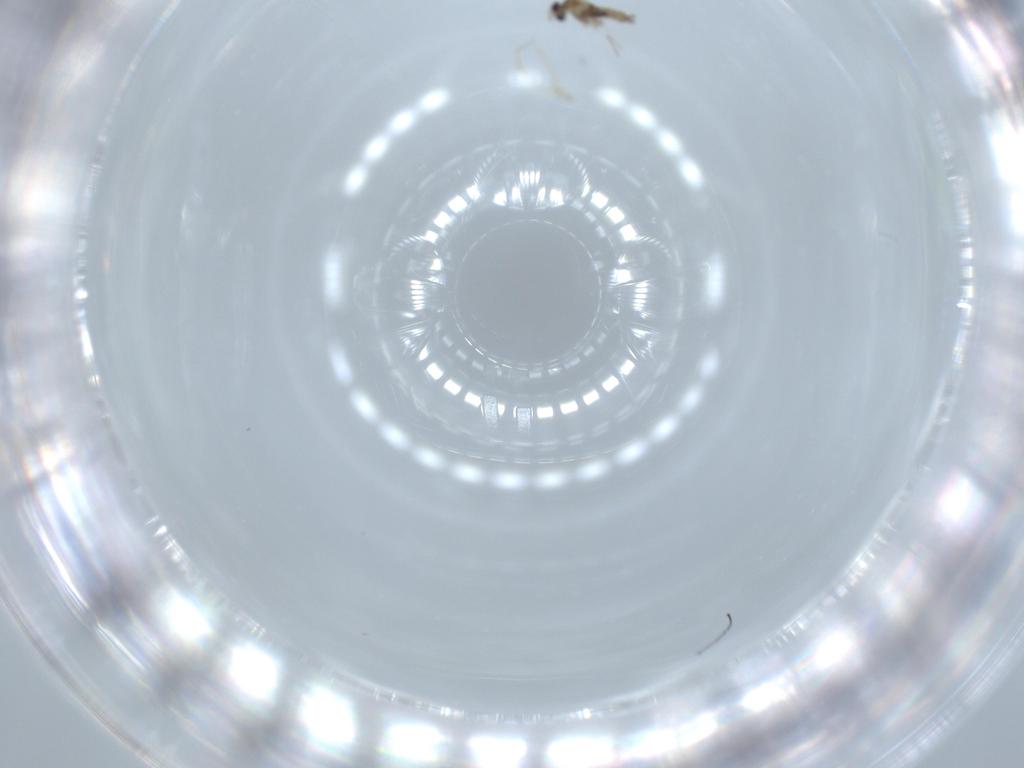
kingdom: Animalia
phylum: Arthropoda
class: Insecta
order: Diptera
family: Cecidomyiidae
